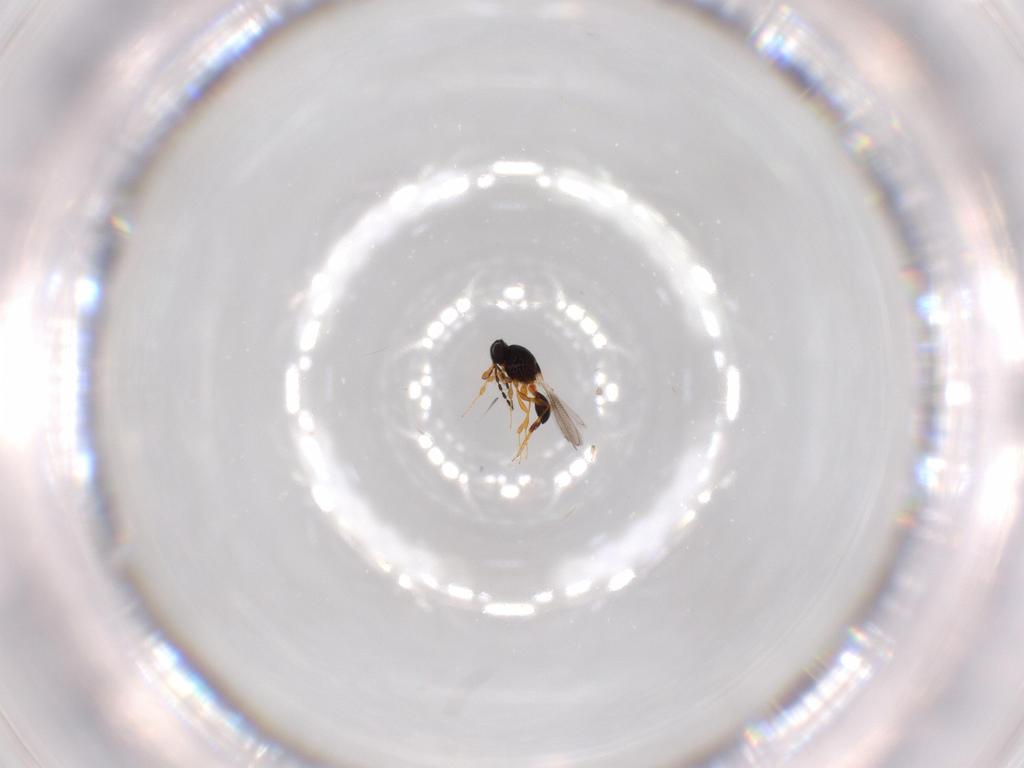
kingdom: Animalia
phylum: Arthropoda
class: Insecta
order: Hymenoptera
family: Platygastridae
